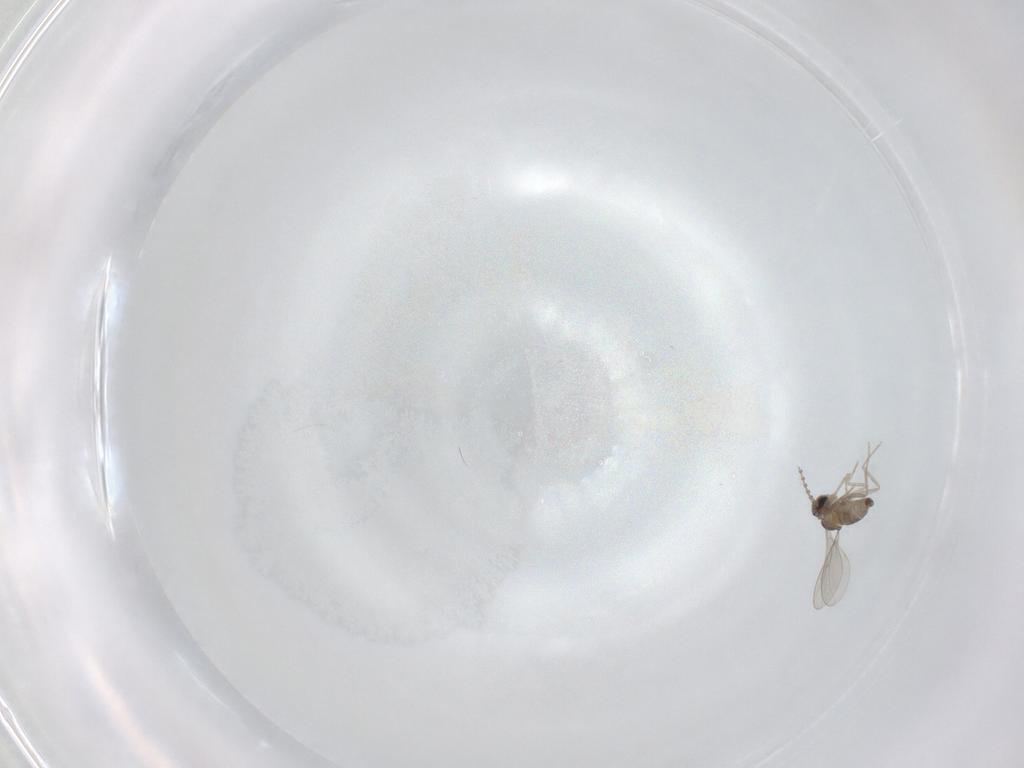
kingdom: Animalia
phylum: Arthropoda
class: Insecta
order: Diptera
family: Cecidomyiidae
